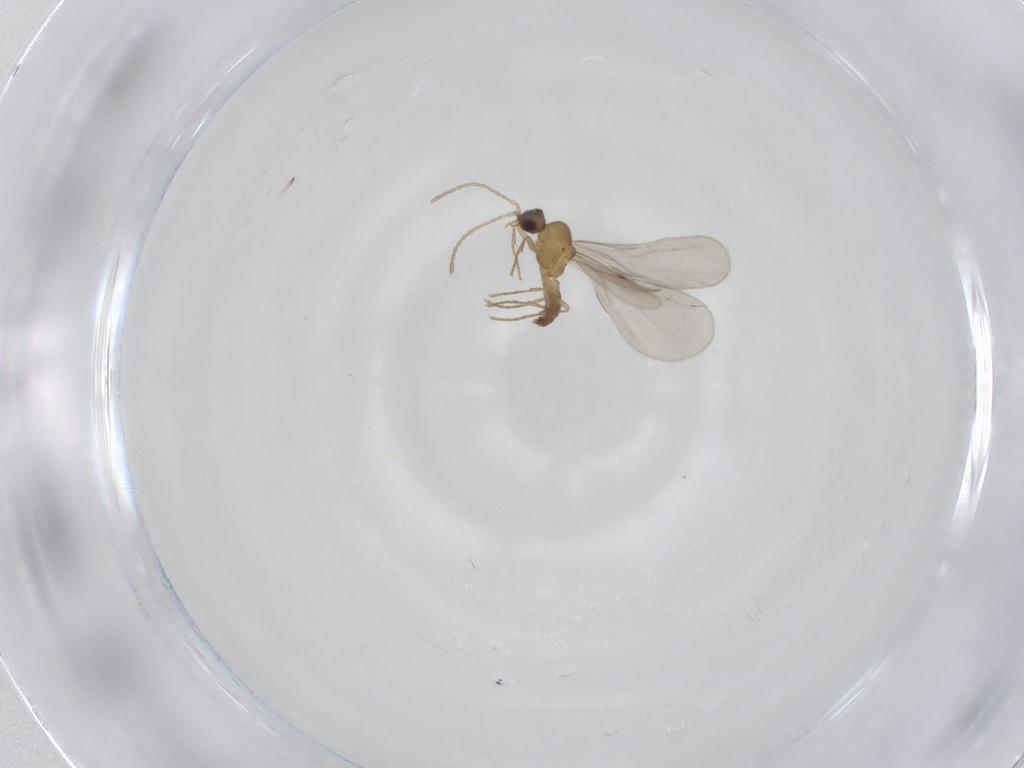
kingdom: Animalia
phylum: Arthropoda
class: Insecta
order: Hymenoptera
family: Formicidae
